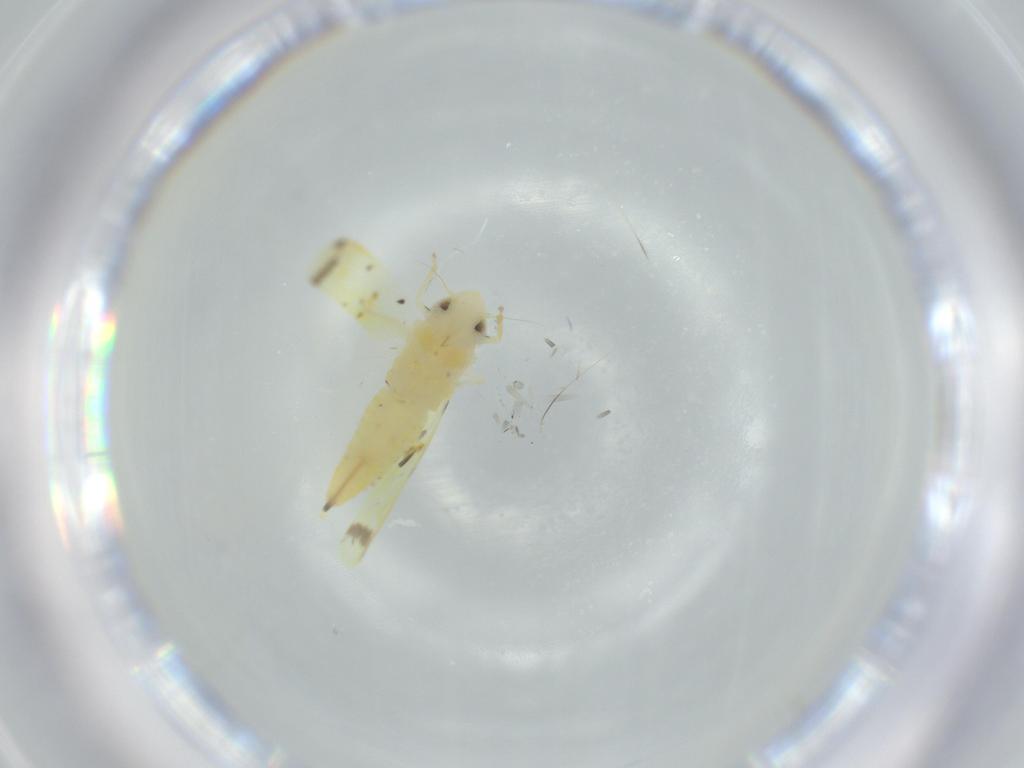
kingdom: Animalia
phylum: Arthropoda
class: Insecta
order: Hemiptera
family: Cicadellidae
